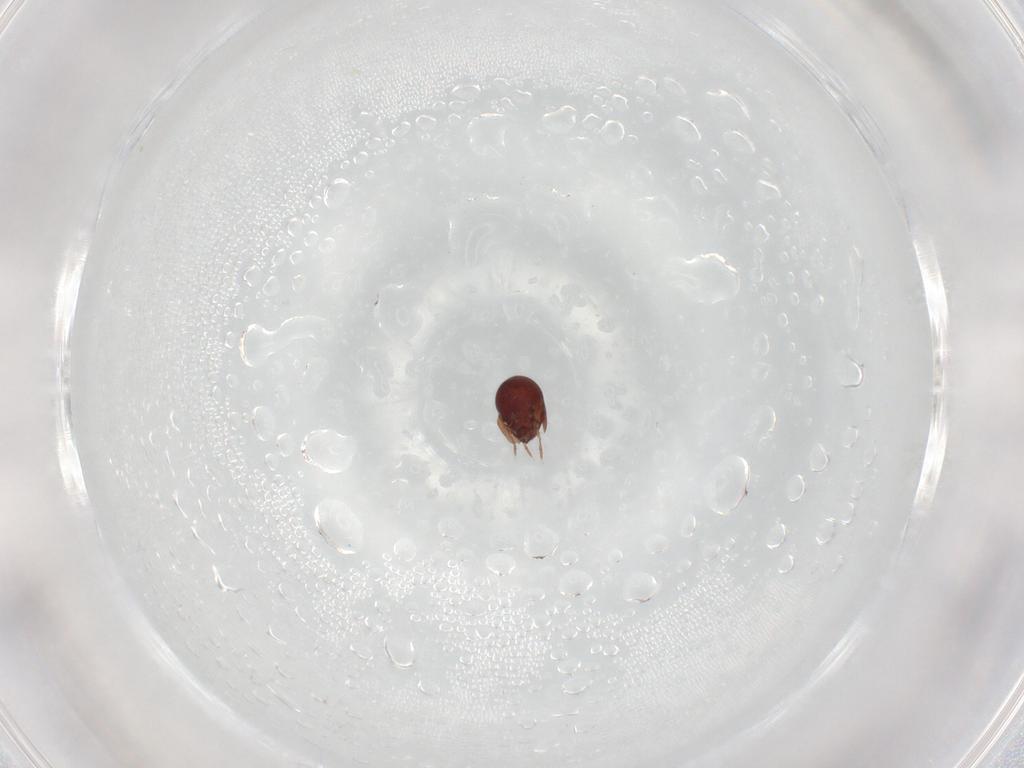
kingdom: Animalia
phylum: Arthropoda
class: Arachnida
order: Sarcoptiformes
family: Galumnidae
